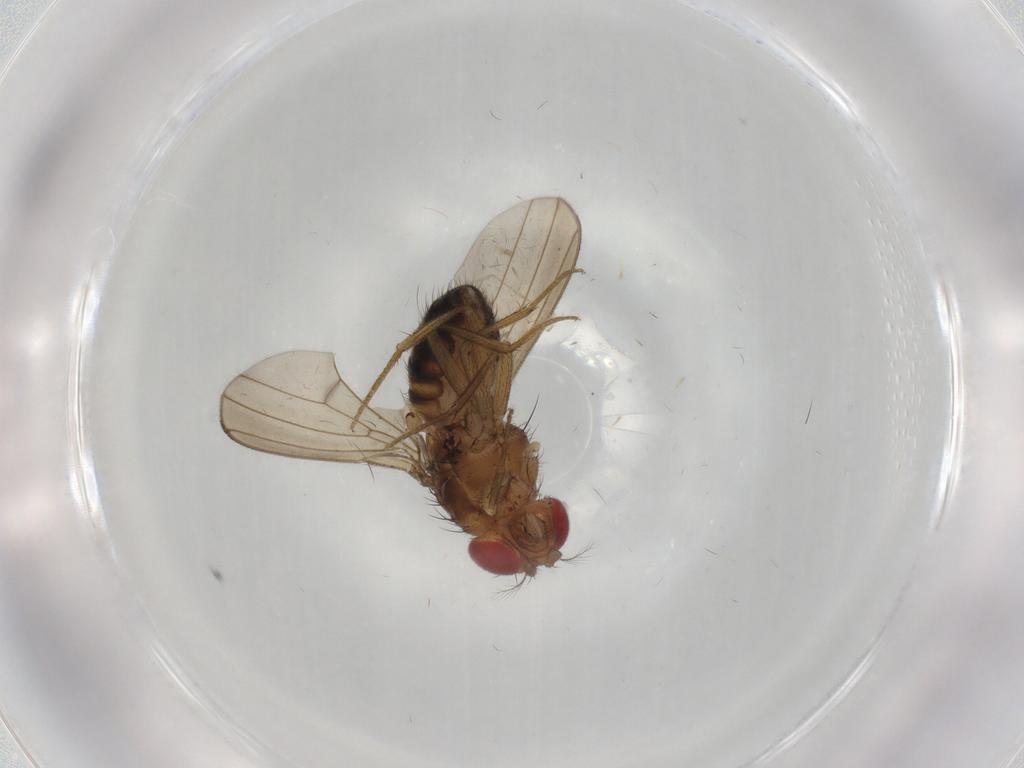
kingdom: Animalia
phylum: Arthropoda
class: Insecta
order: Diptera
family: Drosophilidae
